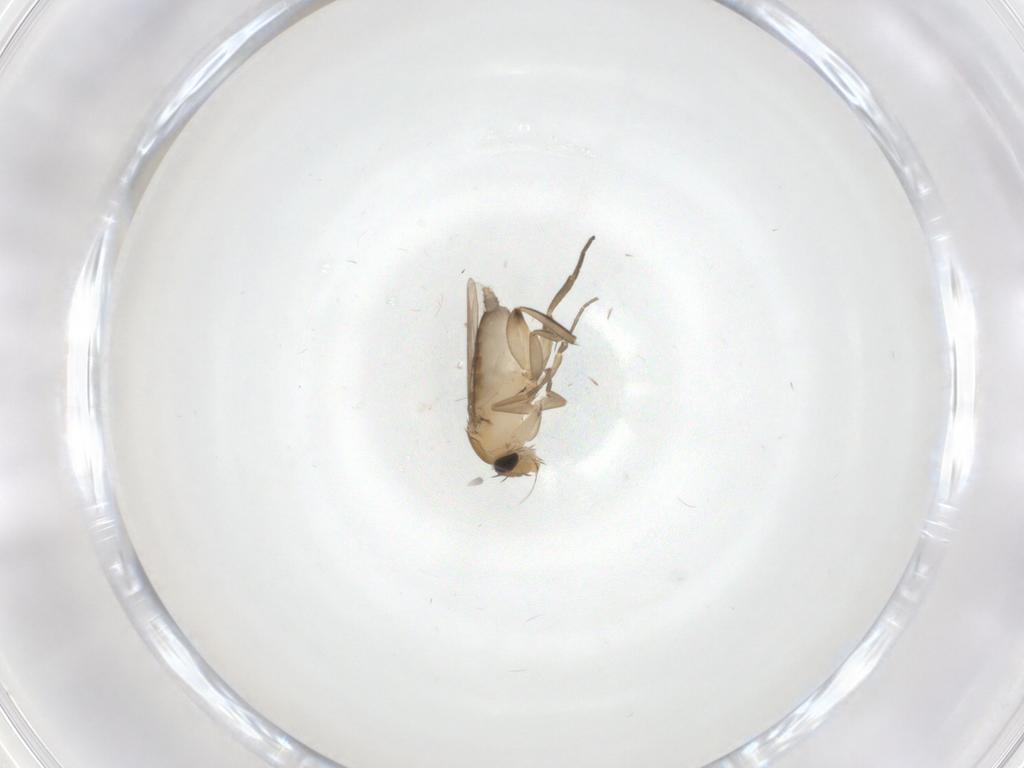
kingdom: Animalia
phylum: Arthropoda
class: Insecta
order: Diptera
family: Phoridae
